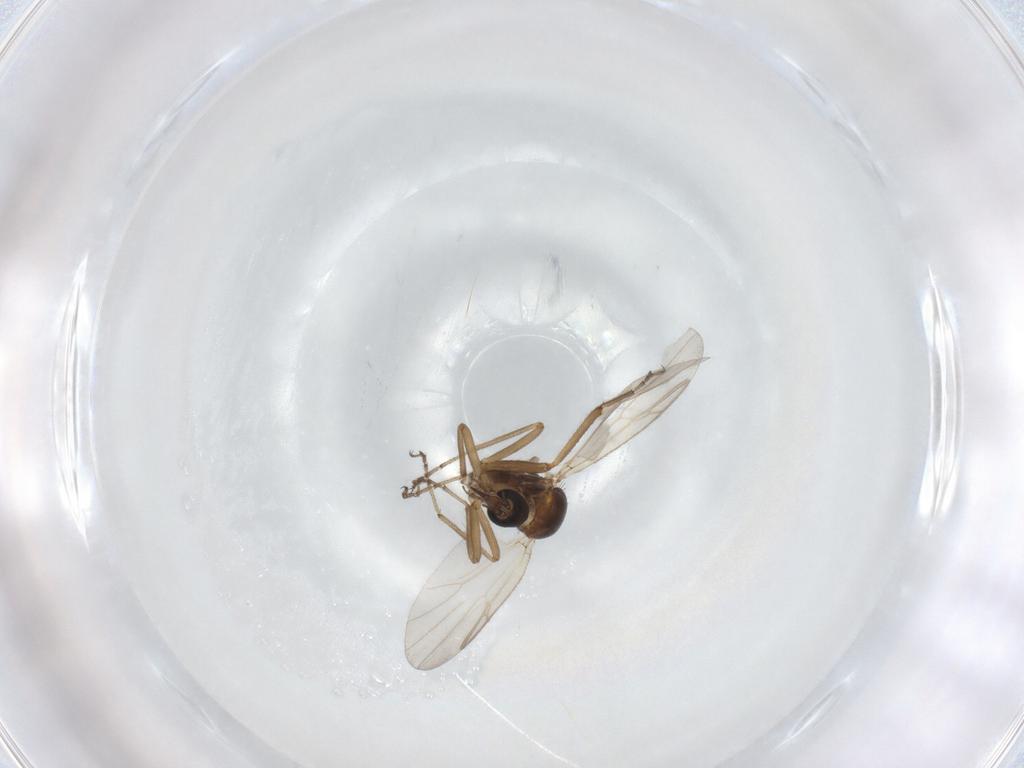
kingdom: Animalia
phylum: Arthropoda
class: Insecta
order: Diptera
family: Ceratopogonidae
